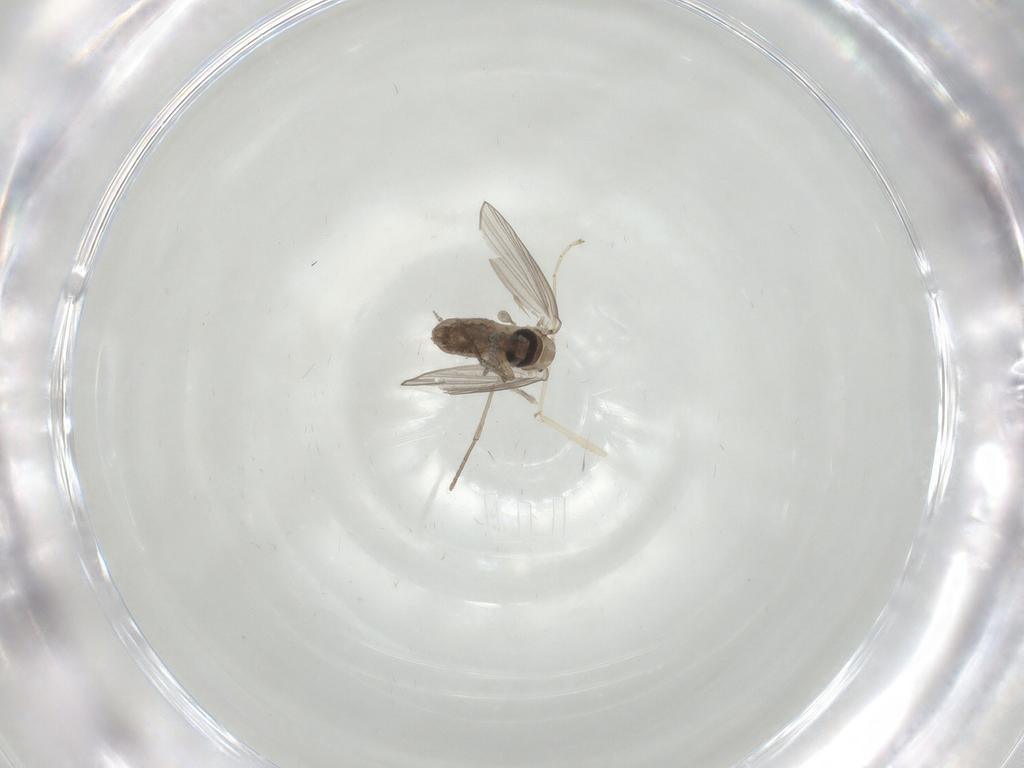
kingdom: Animalia
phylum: Arthropoda
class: Insecta
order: Diptera
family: Psychodidae
